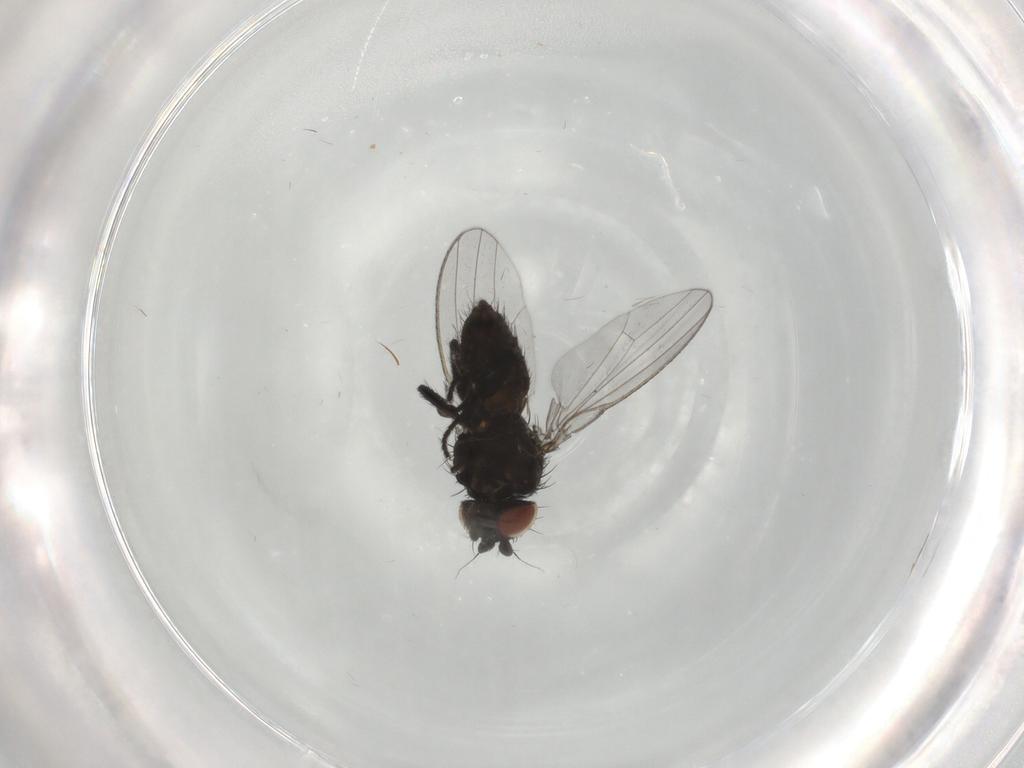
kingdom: Animalia
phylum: Arthropoda
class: Insecta
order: Diptera
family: Milichiidae
